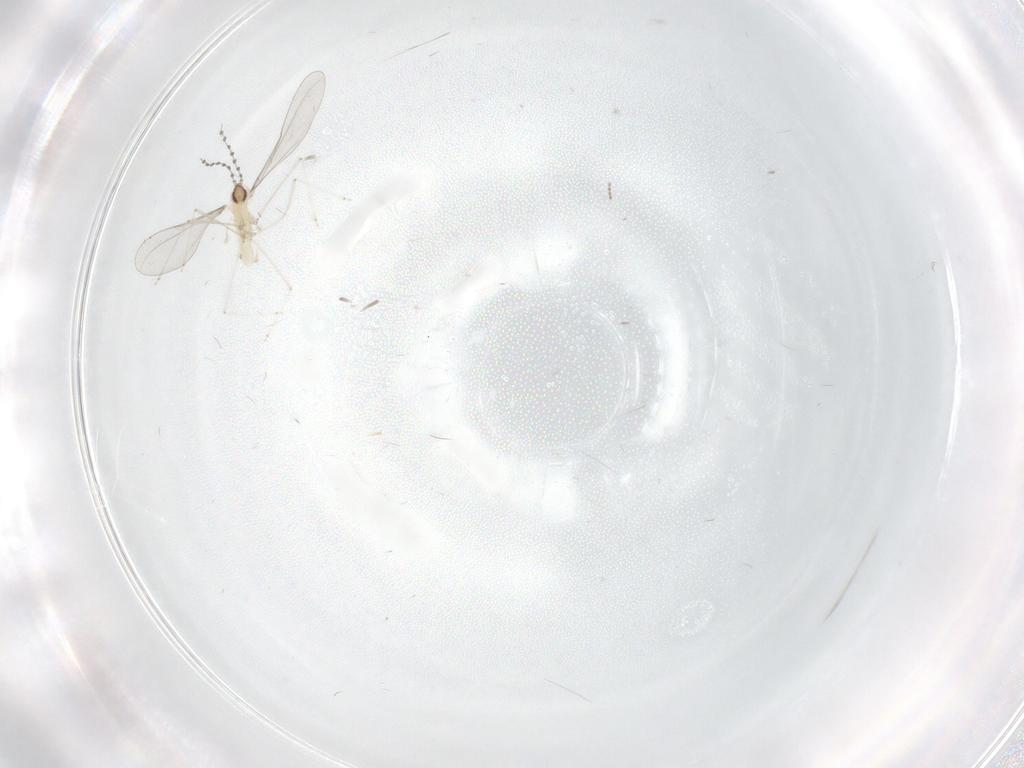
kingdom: Animalia
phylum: Arthropoda
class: Insecta
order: Diptera
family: Cecidomyiidae
